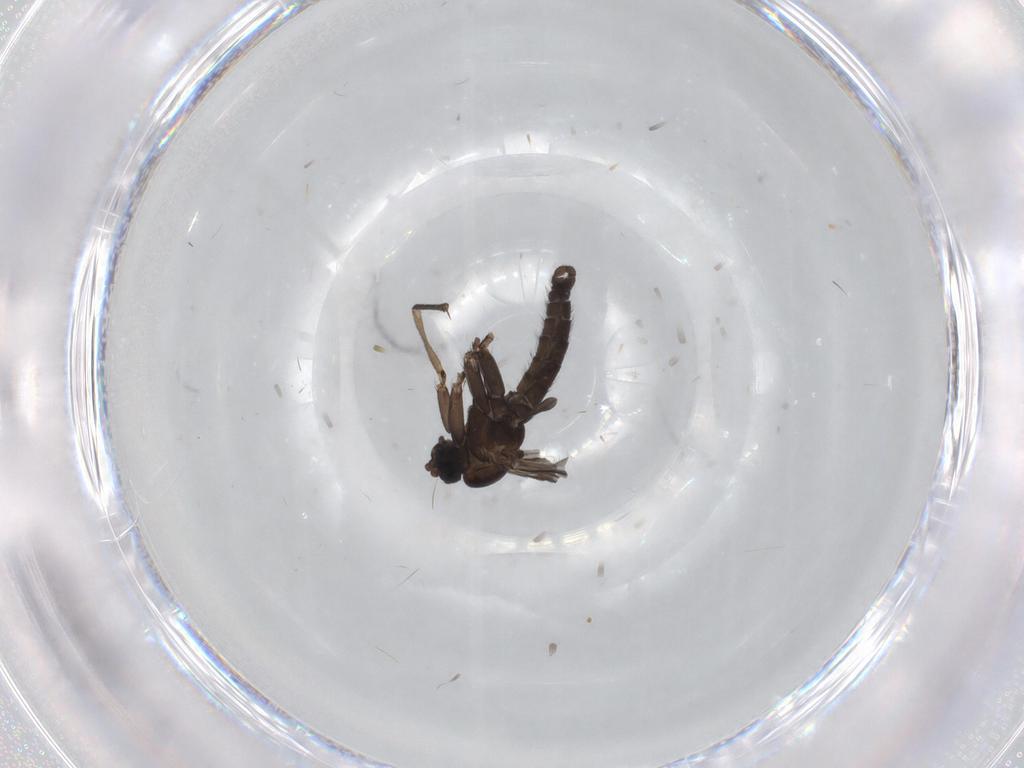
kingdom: Animalia
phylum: Arthropoda
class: Insecta
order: Diptera
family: Sciaridae
